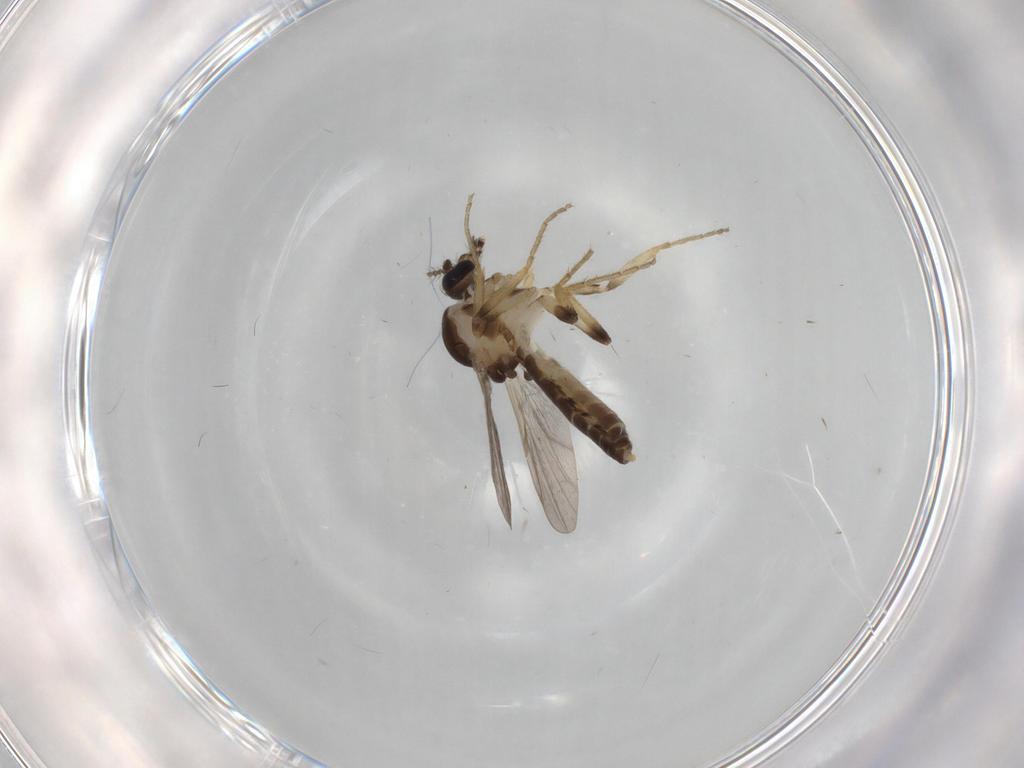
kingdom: Animalia
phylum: Arthropoda
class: Insecta
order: Diptera
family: Ceratopogonidae
